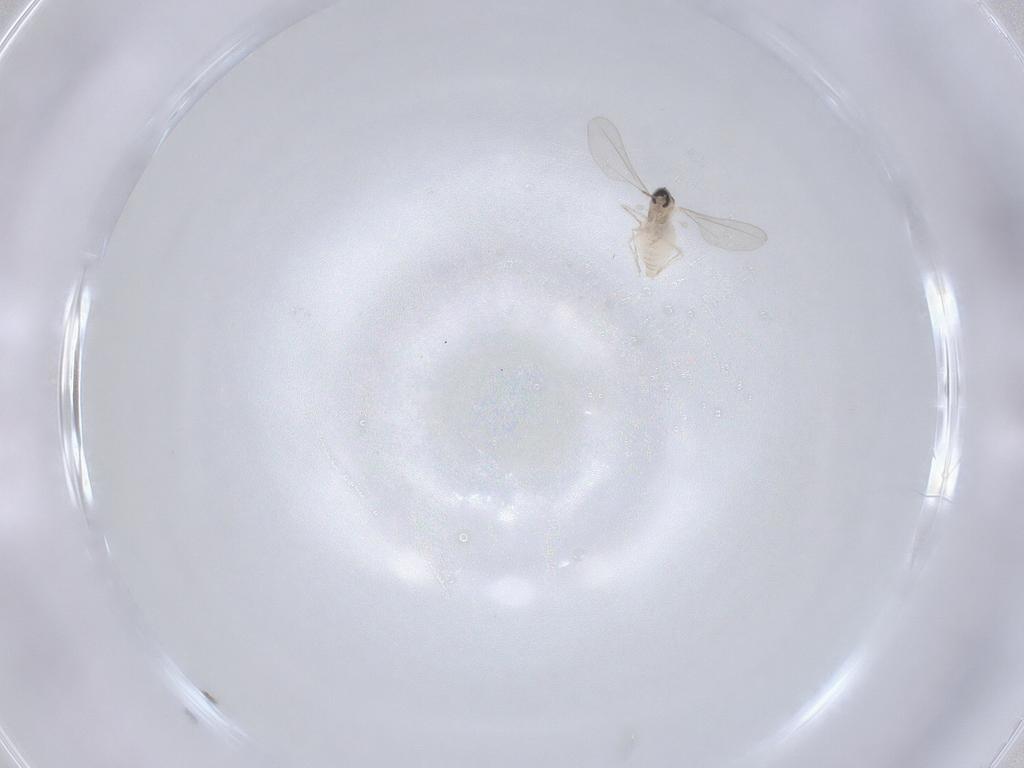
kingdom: Animalia
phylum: Arthropoda
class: Insecta
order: Diptera
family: Cecidomyiidae
